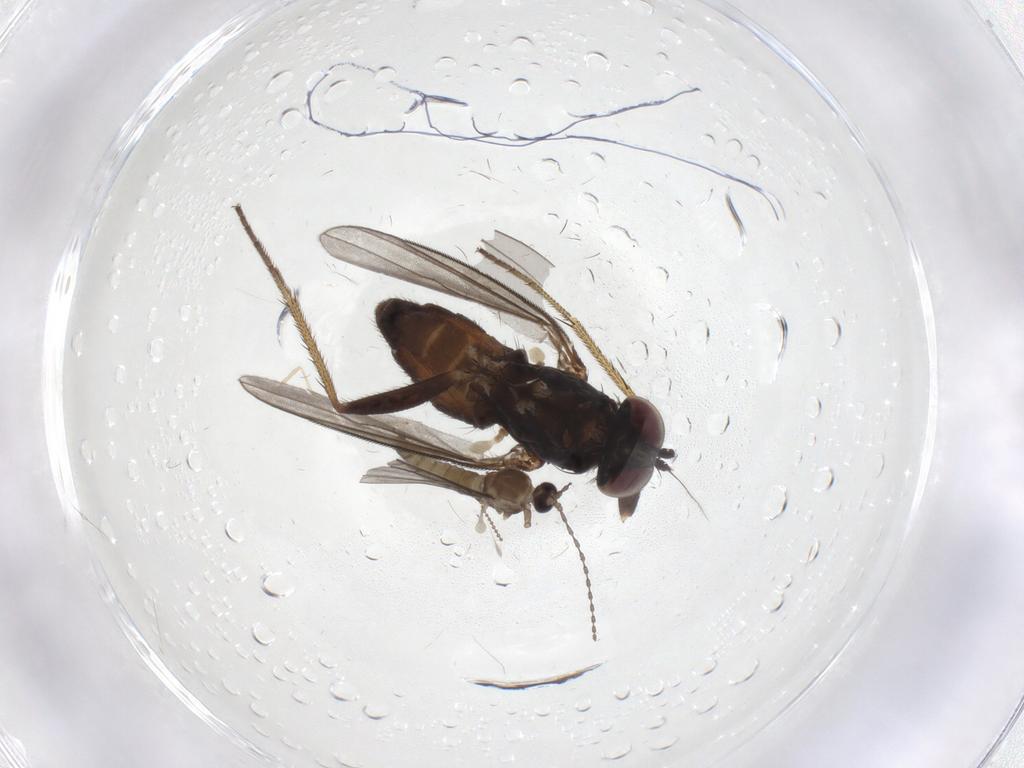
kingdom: Animalia
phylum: Arthropoda
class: Insecta
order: Diptera
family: Cecidomyiidae
